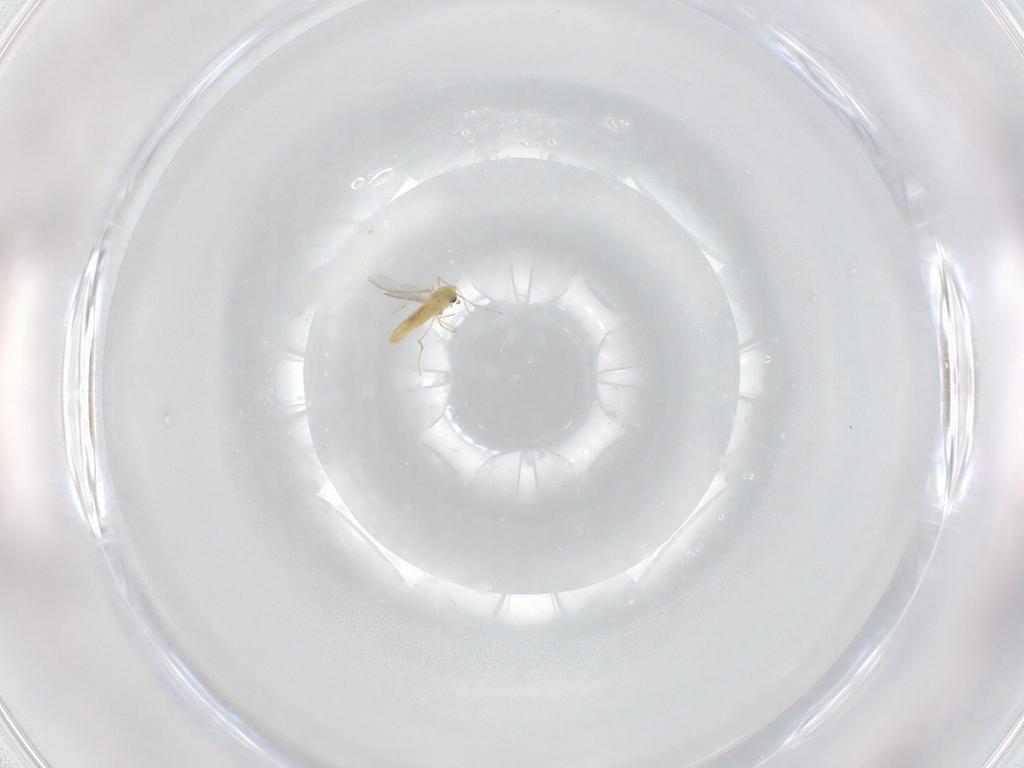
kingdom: Animalia
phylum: Arthropoda
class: Insecta
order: Diptera
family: Chironomidae
